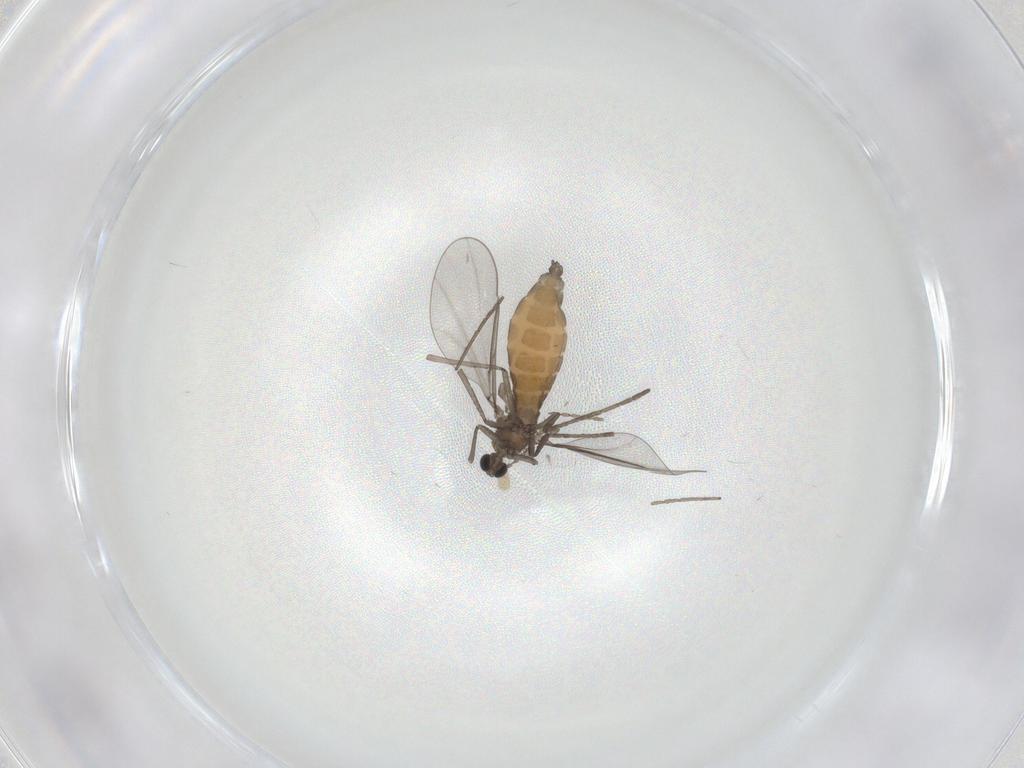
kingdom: Animalia
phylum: Arthropoda
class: Insecta
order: Diptera
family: Cecidomyiidae
